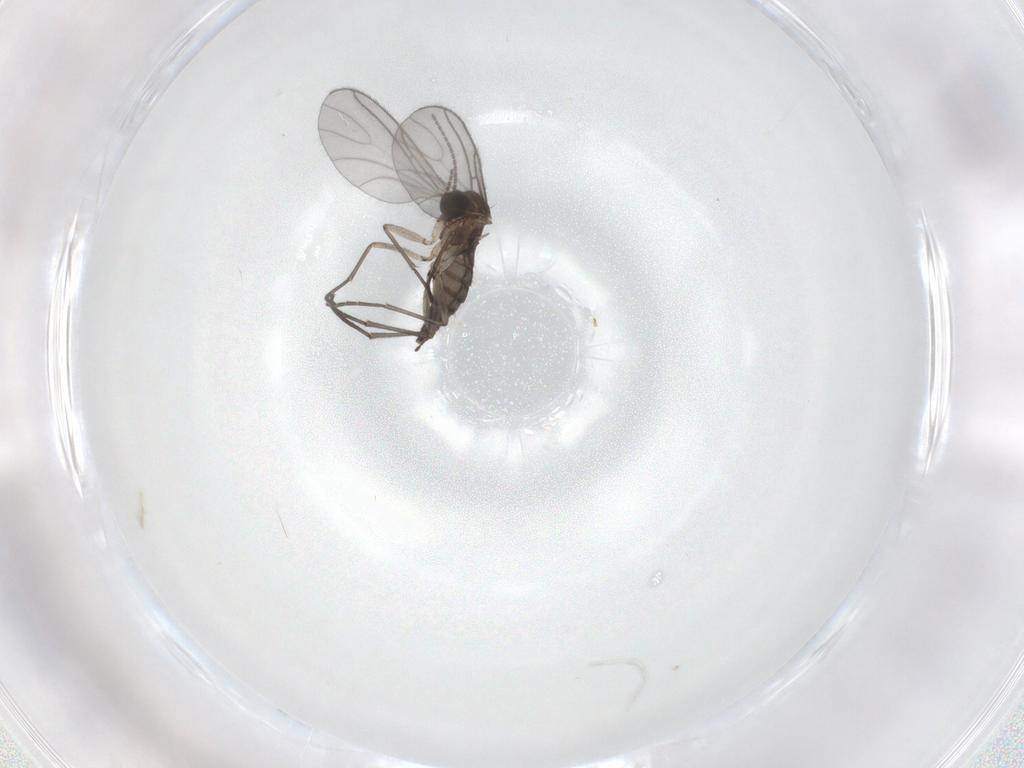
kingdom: Animalia
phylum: Arthropoda
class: Insecta
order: Diptera
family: Sciaridae
